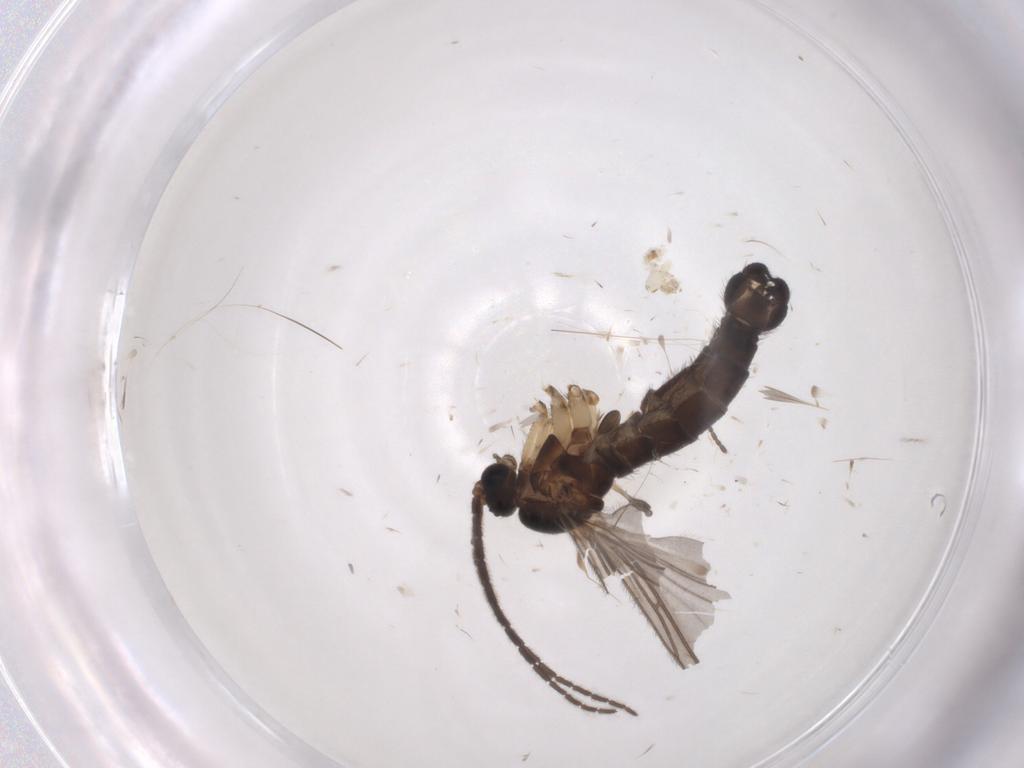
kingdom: Animalia
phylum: Arthropoda
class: Insecta
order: Diptera
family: Sciaridae
